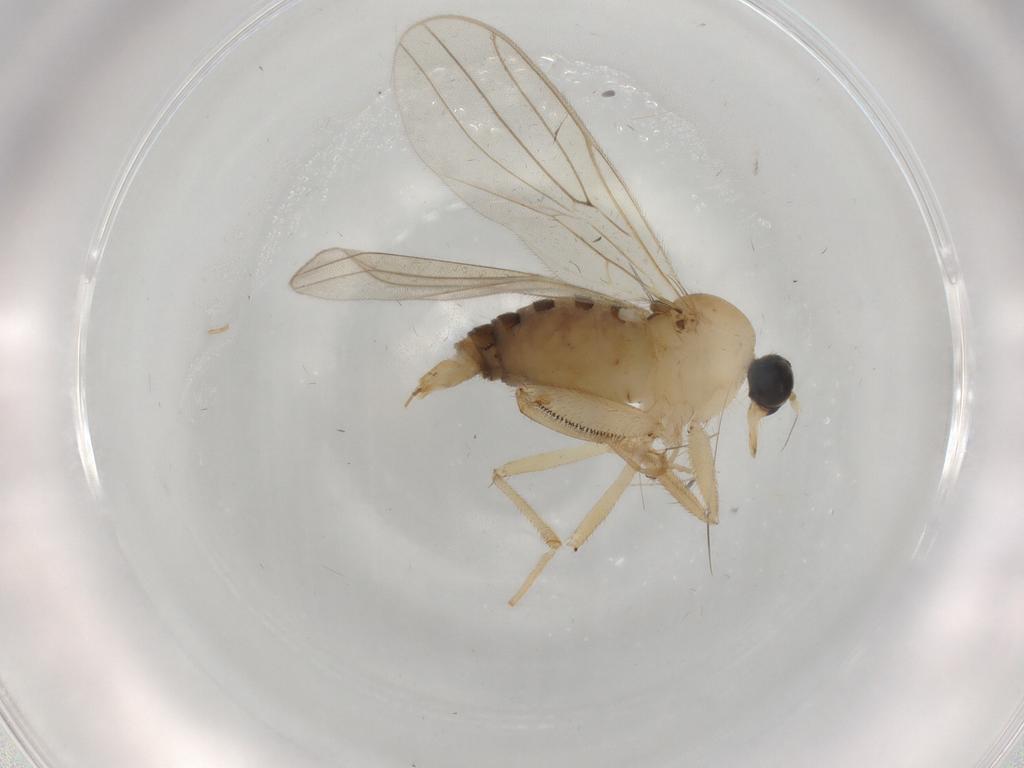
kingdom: Animalia
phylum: Arthropoda
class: Insecta
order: Diptera
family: Hybotidae
